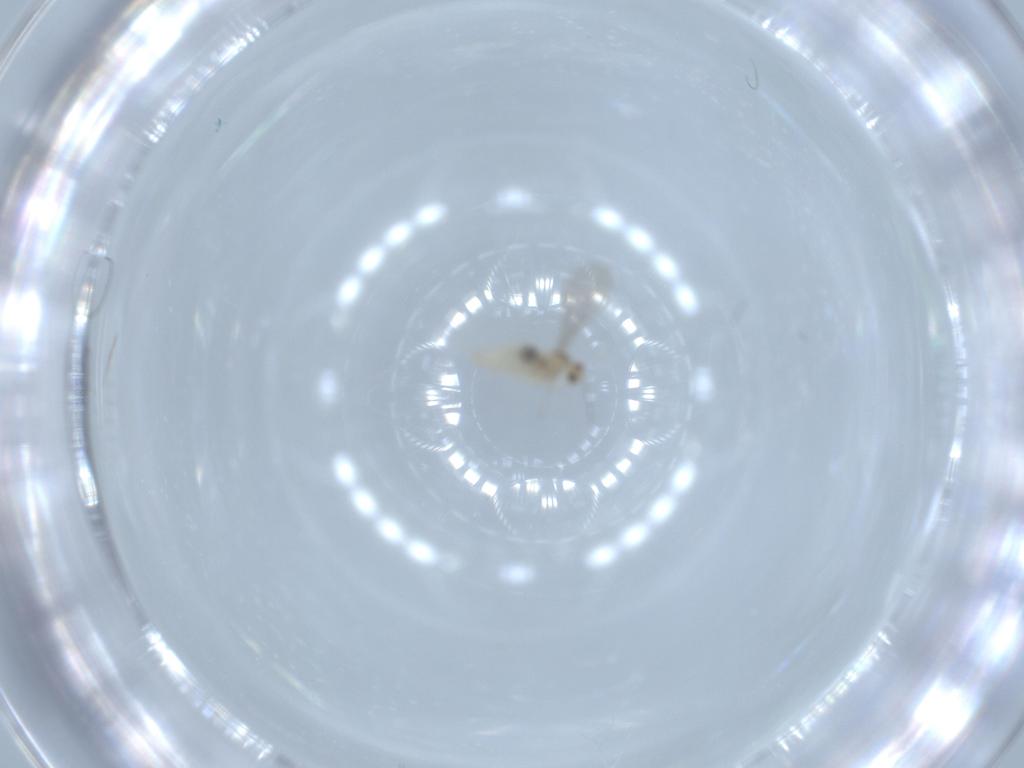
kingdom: Animalia
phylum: Arthropoda
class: Insecta
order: Diptera
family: Cecidomyiidae
